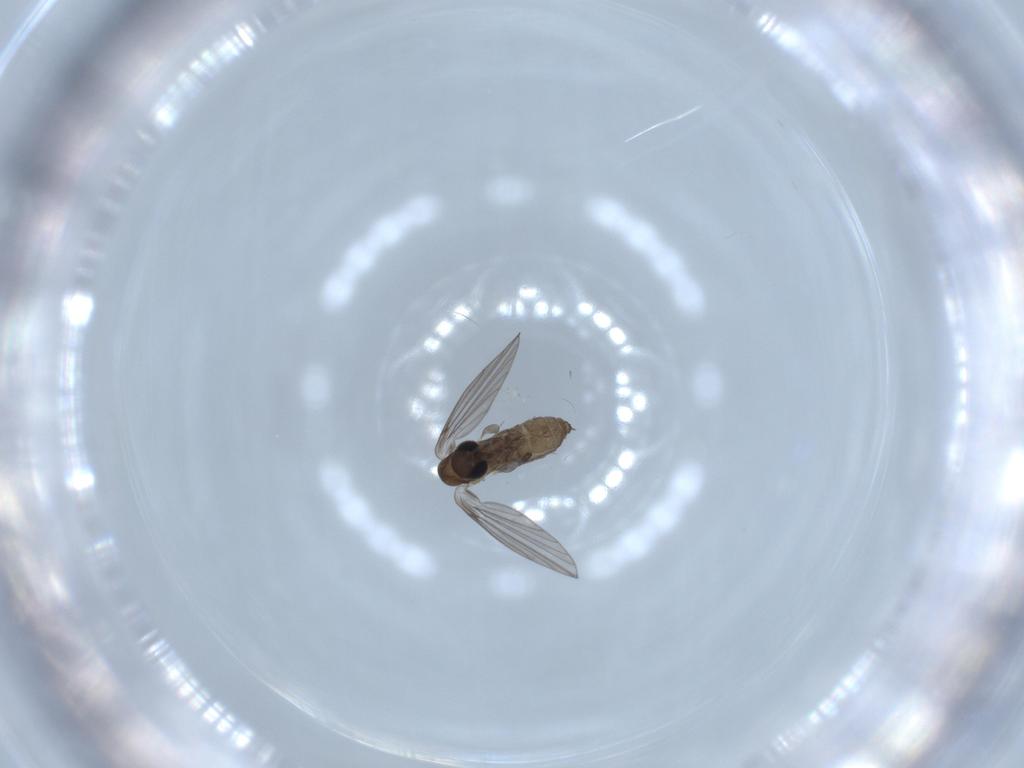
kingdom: Animalia
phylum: Arthropoda
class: Insecta
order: Diptera
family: Psychodidae
